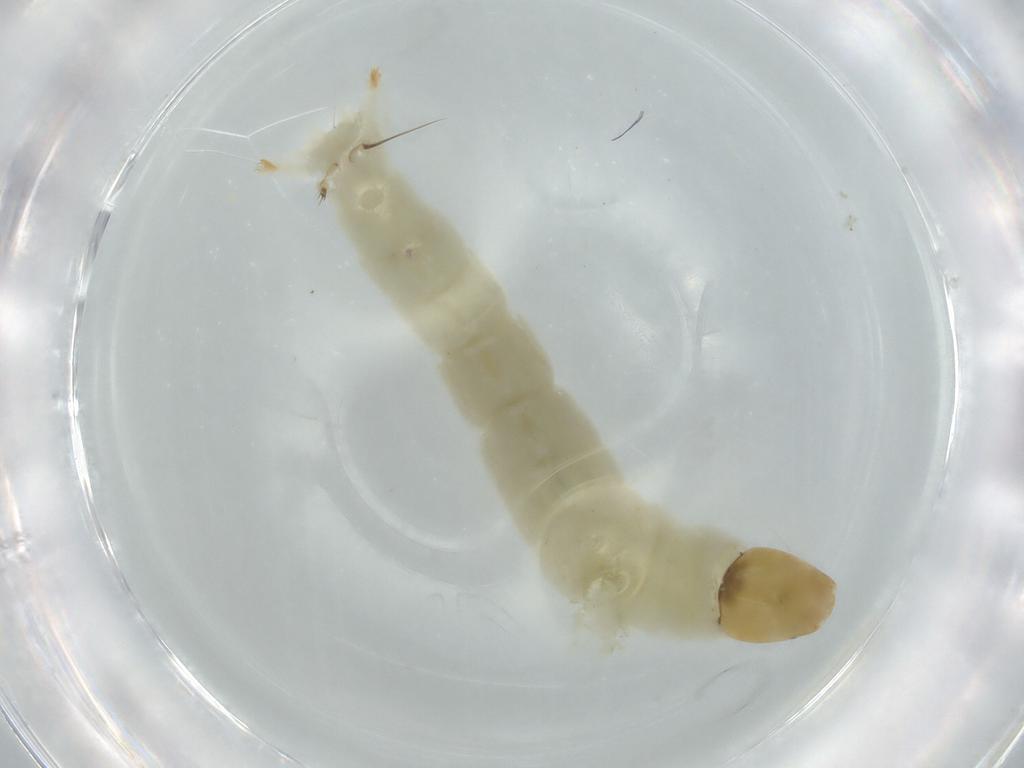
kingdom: Animalia
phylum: Arthropoda
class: Insecta
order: Diptera
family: Chironomidae
